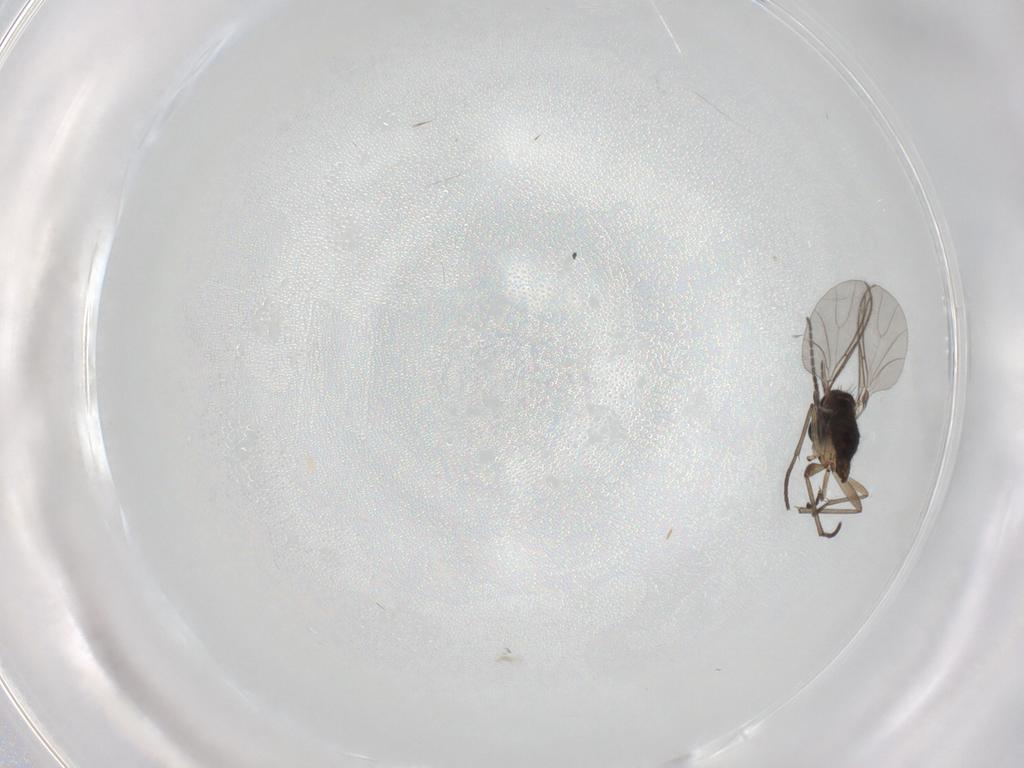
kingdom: Animalia
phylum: Arthropoda
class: Insecta
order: Diptera
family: Sciaridae
